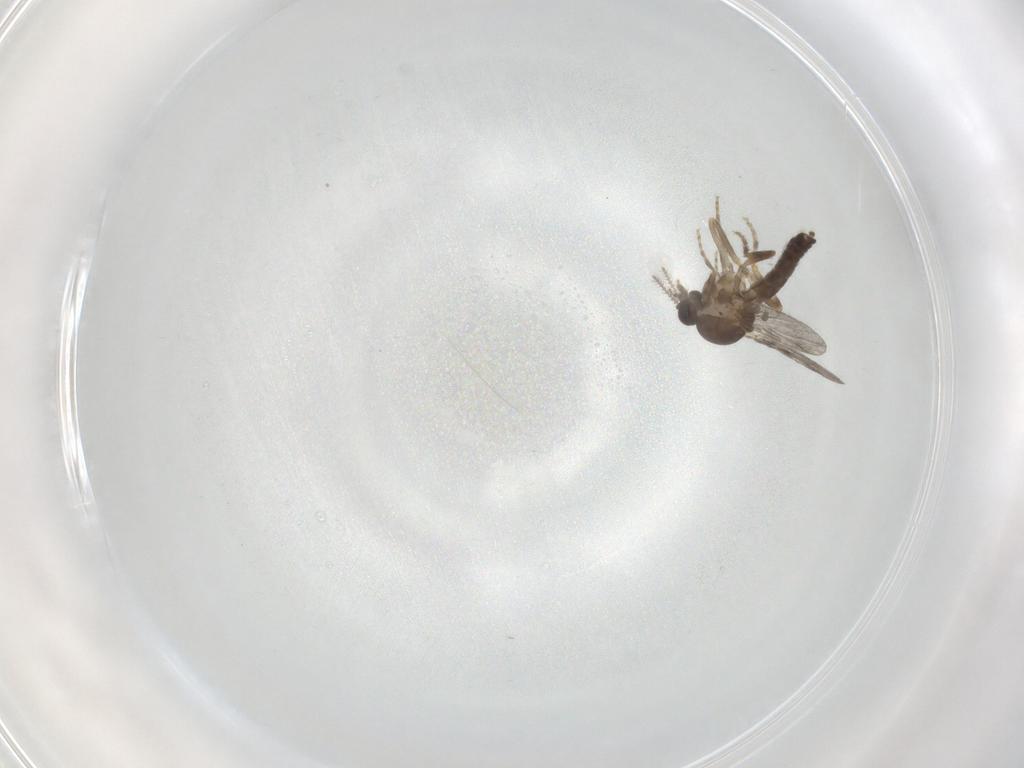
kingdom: Animalia
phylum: Arthropoda
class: Insecta
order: Diptera
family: Ceratopogonidae
